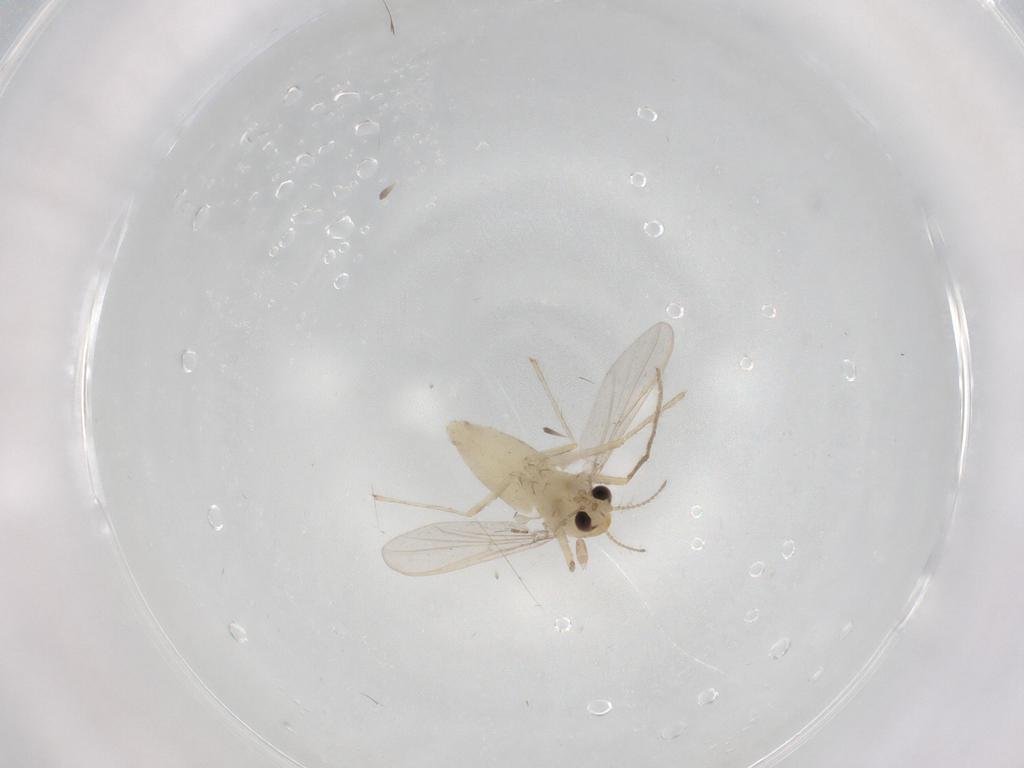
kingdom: Animalia
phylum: Arthropoda
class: Insecta
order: Diptera
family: Chironomidae
